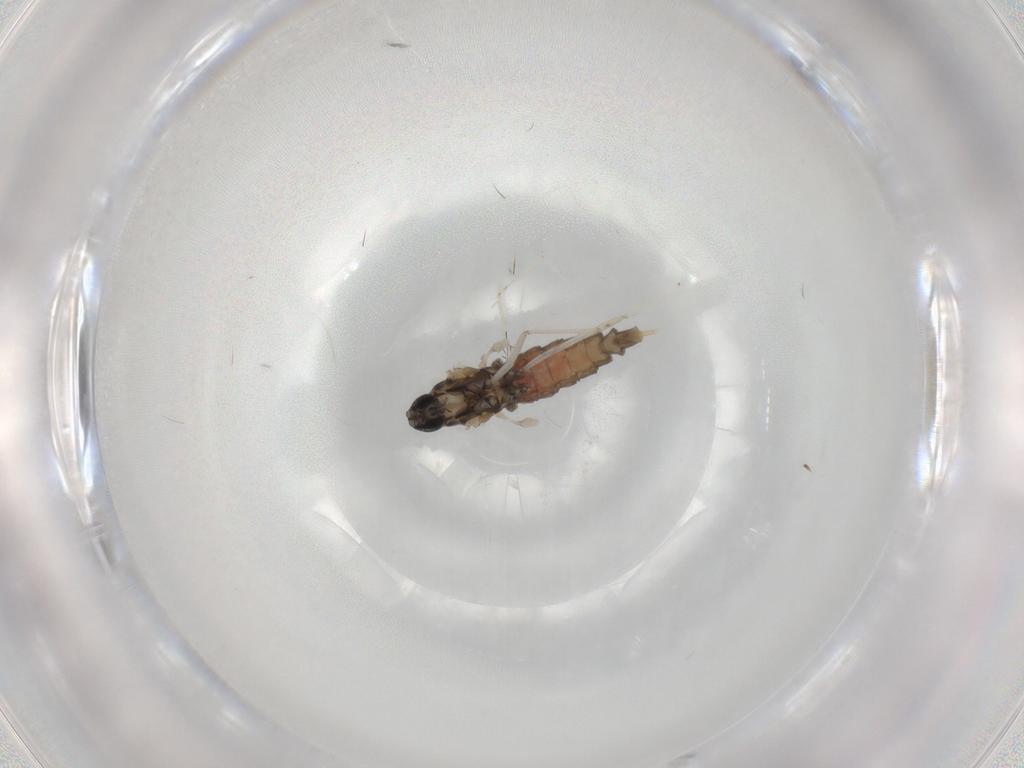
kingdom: Animalia
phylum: Arthropoda
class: Insecta
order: Diptera
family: Cecidomyiidae
